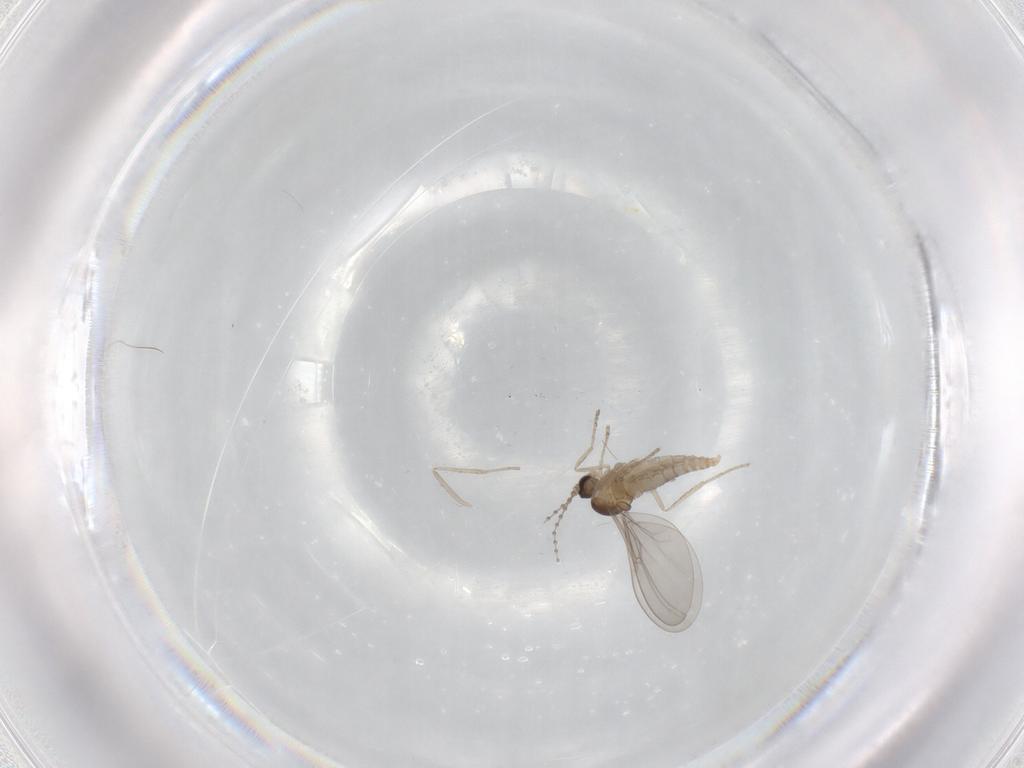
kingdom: Animalia
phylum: Arthropoda
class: Insecta
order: Diptera
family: Cecidomyiidae
